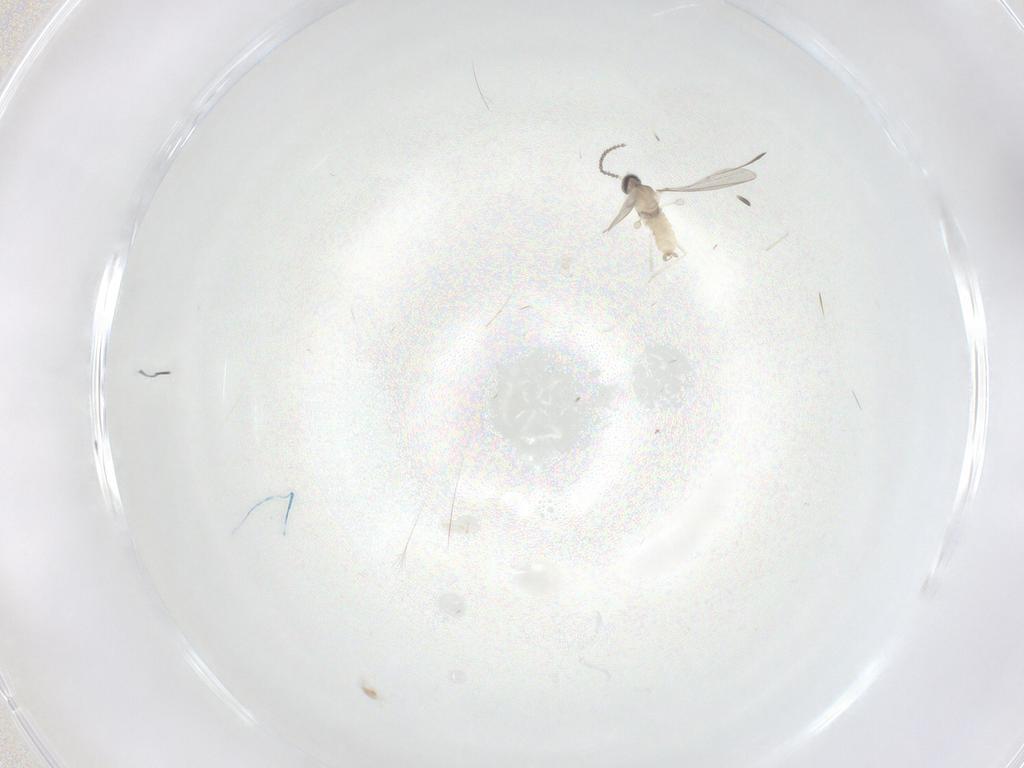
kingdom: Animalia
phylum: Arthropoda
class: Insecta
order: Diptera
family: Cecidomyiidae
